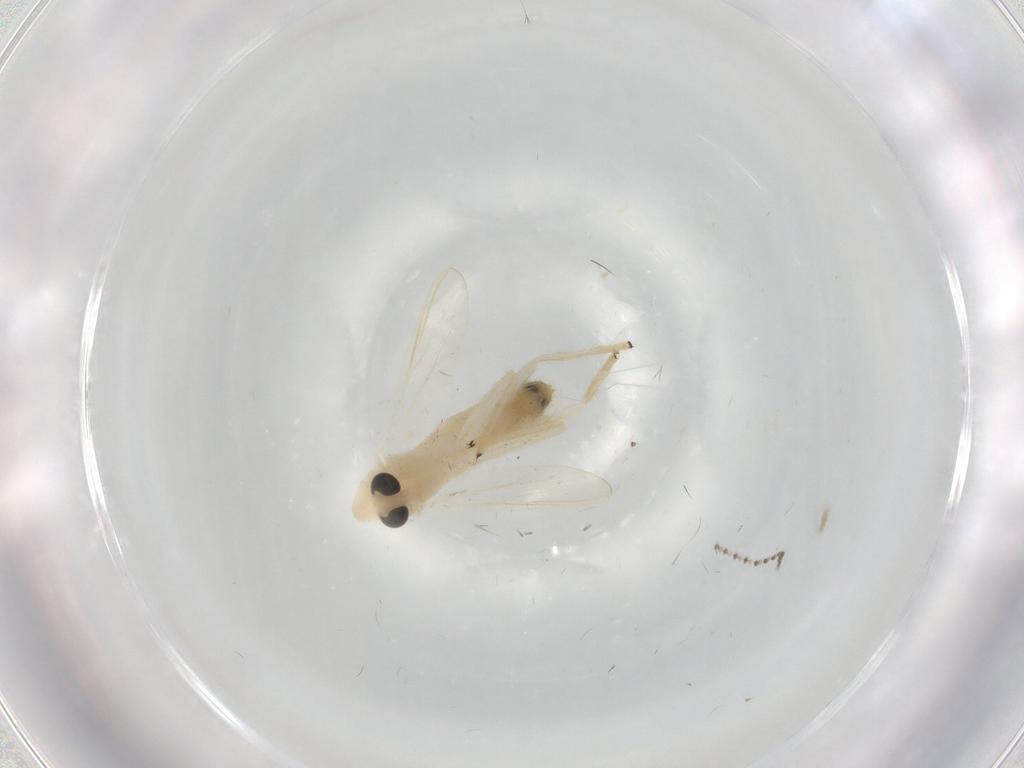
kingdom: Animalia
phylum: Arthropoda
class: Insecta
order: Diptera
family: Chironomidae
